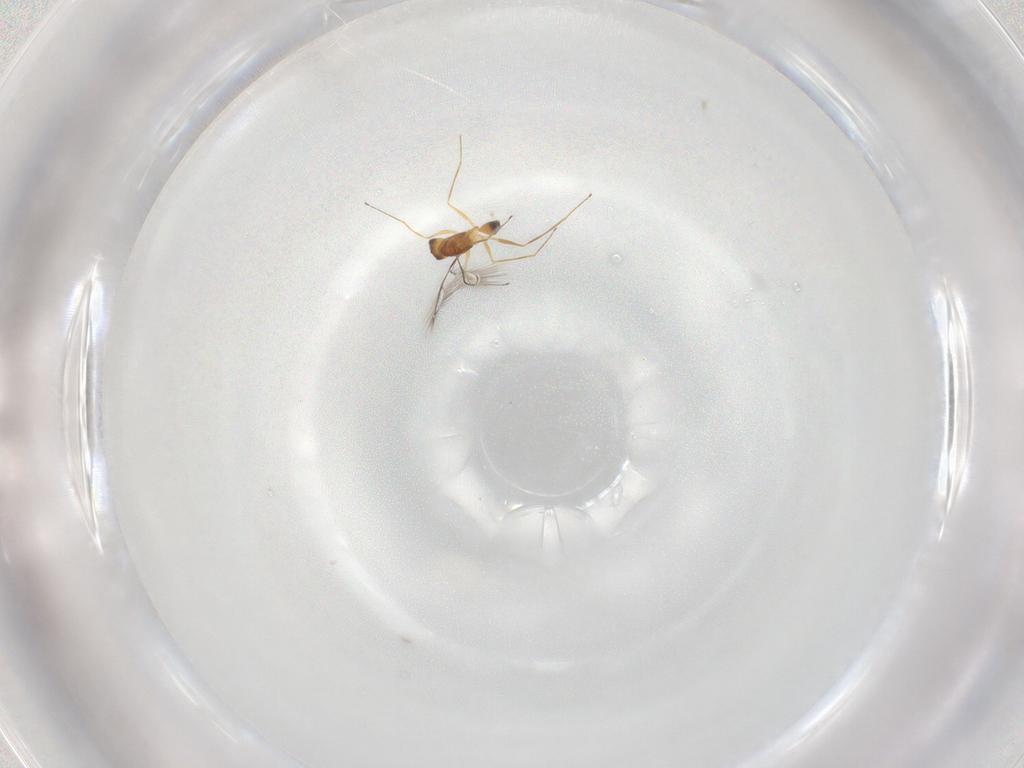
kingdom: Animalia
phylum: Arthropoda
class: Insecta
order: Hymenoptera
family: Mymaridae
